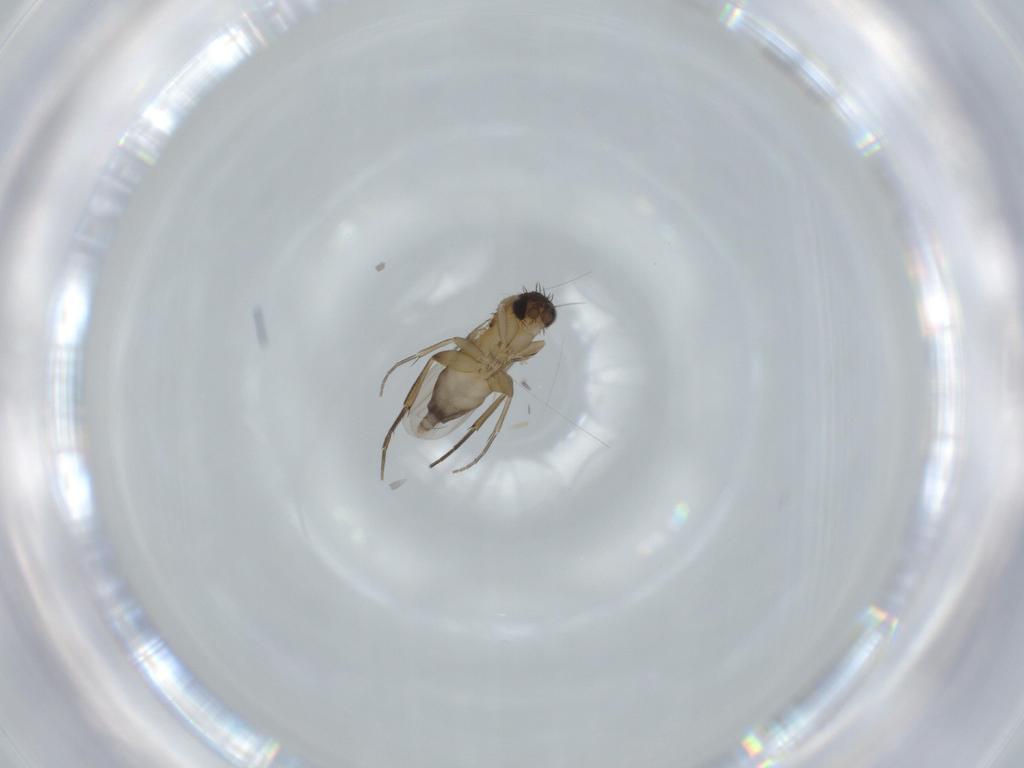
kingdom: Animalia
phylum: Arthropoda
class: Insecta
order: Diptera
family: Phoridae
